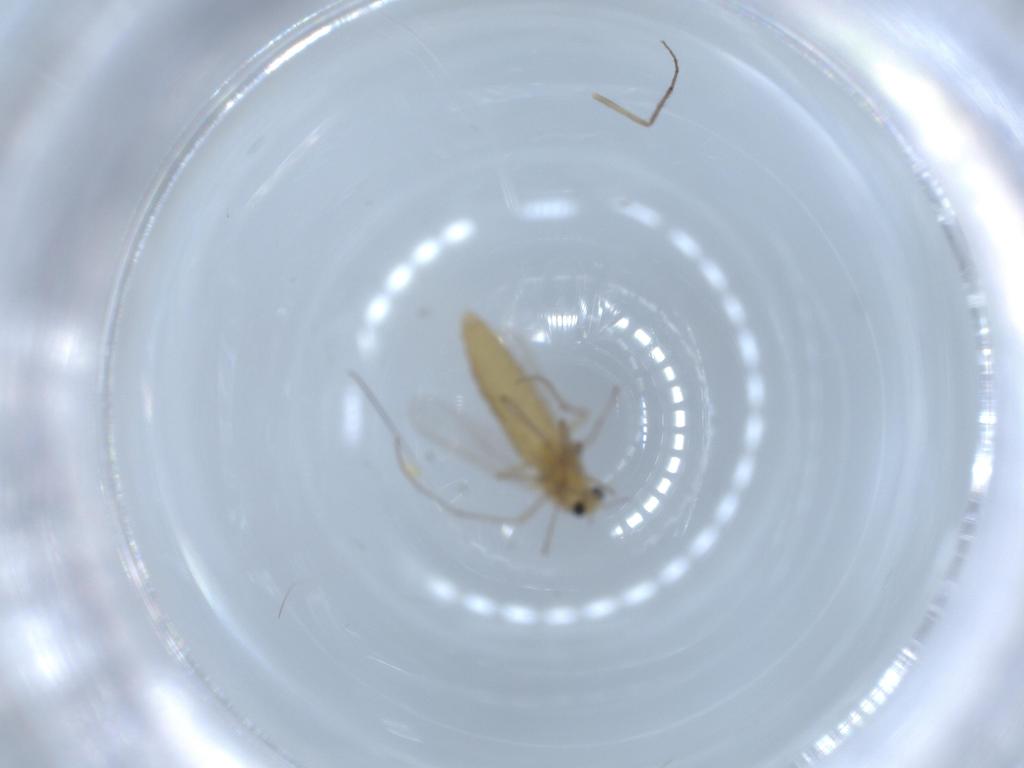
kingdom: Animalia
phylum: Arthropoda
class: Insecta
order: Diptera
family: Chironomidae
